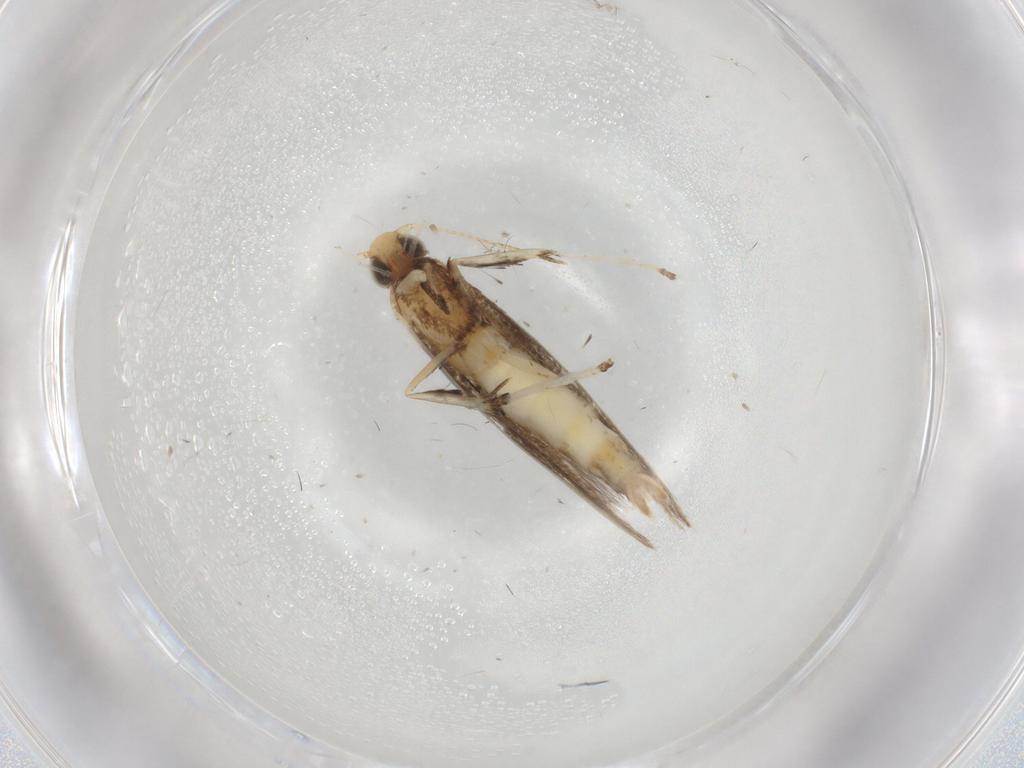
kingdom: Animalia
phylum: Arthropoda
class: Insecta
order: Lepidoptera
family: Gracillariidae
